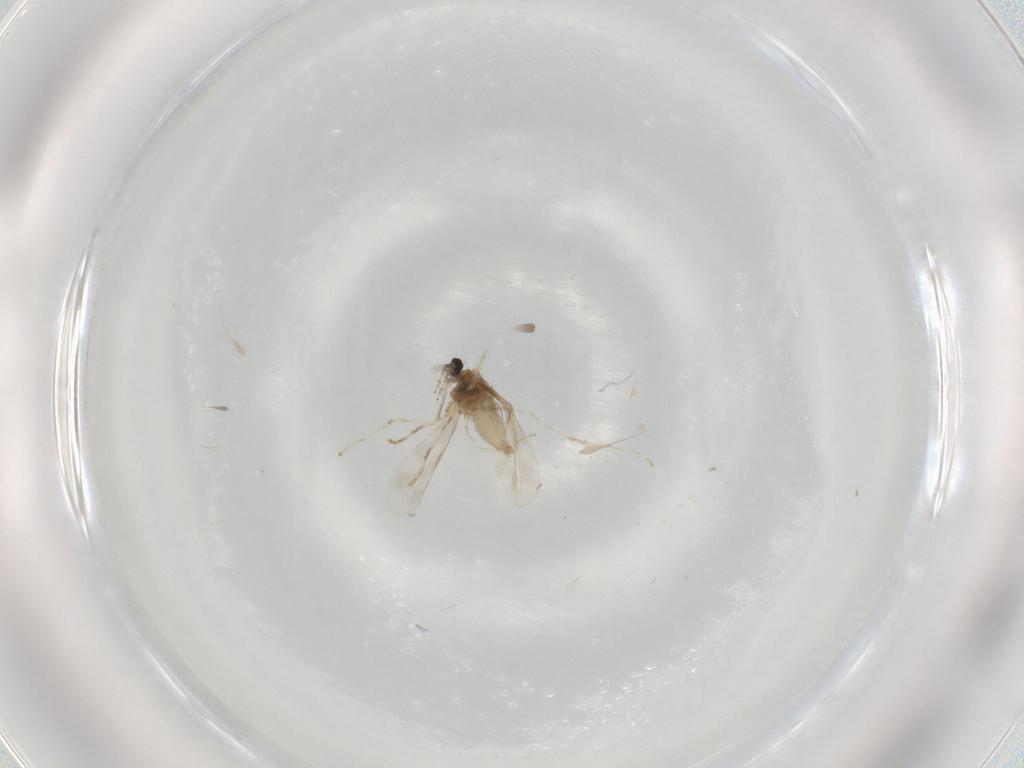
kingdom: Animalia
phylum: Arthropoda
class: Insecta
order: Diptera
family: Cecidomyiidae
